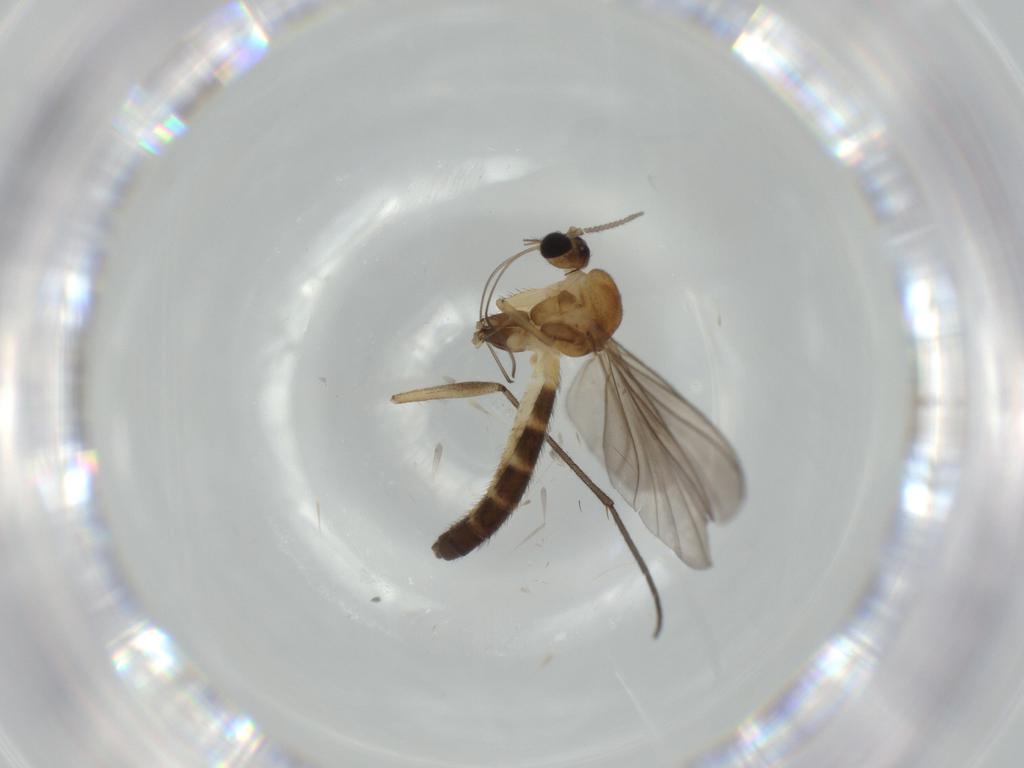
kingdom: Animalia
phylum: Arthropoda
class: Insecta
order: Diptera
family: Keroplatidae
